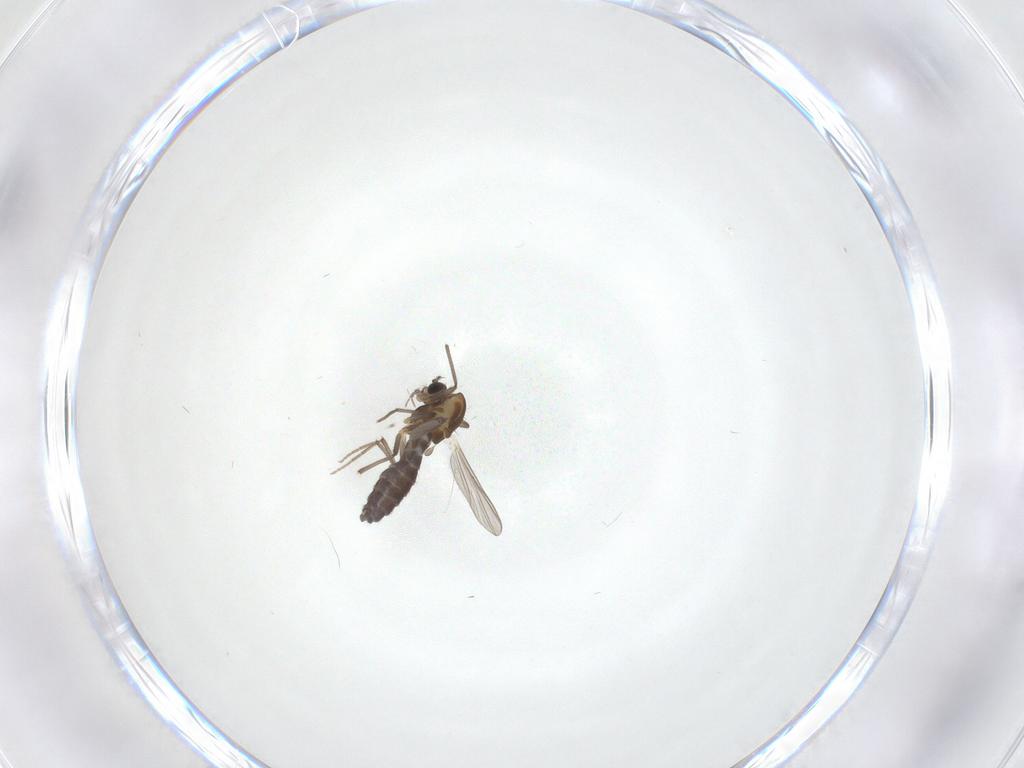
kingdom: Animalia
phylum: Arthropoda
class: Insecta
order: Diptera
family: Chironomidae
